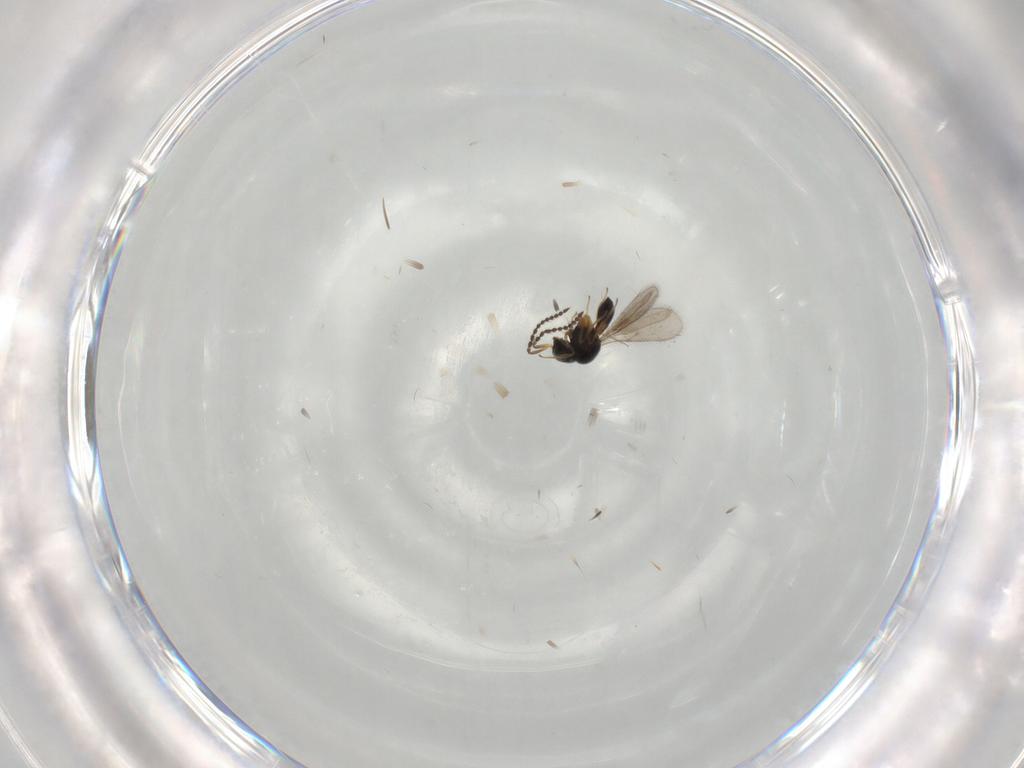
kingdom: Animalia
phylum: Arthropoda
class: Insecta
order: Hymenoptera
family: Scelionidae
